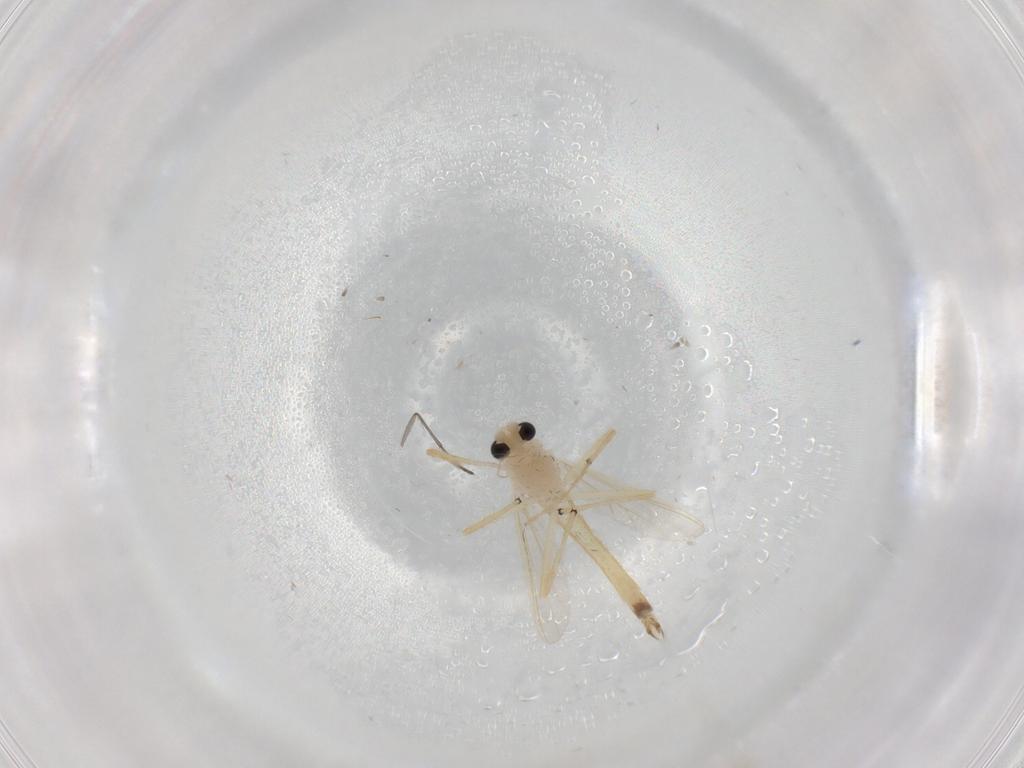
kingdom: Animalia
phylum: Arthropoda
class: Insecta
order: Diptera
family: Chironomidae
